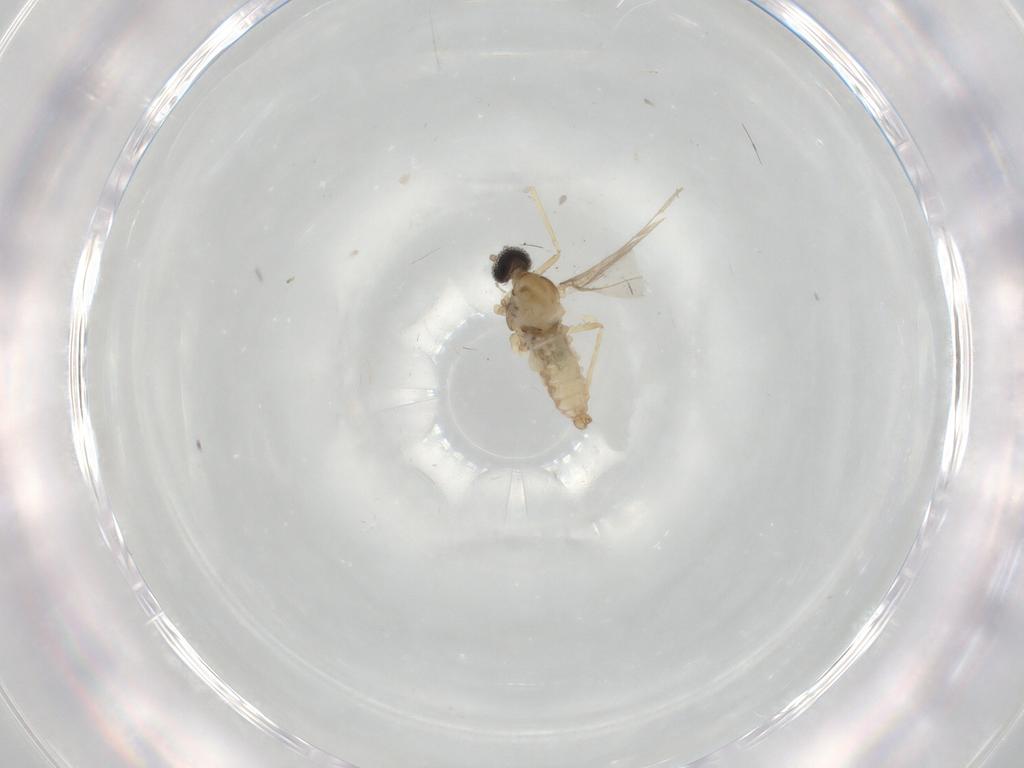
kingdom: Animalia
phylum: Arthropoda
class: Insecta
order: Diptera
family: Cecidomyiidae
